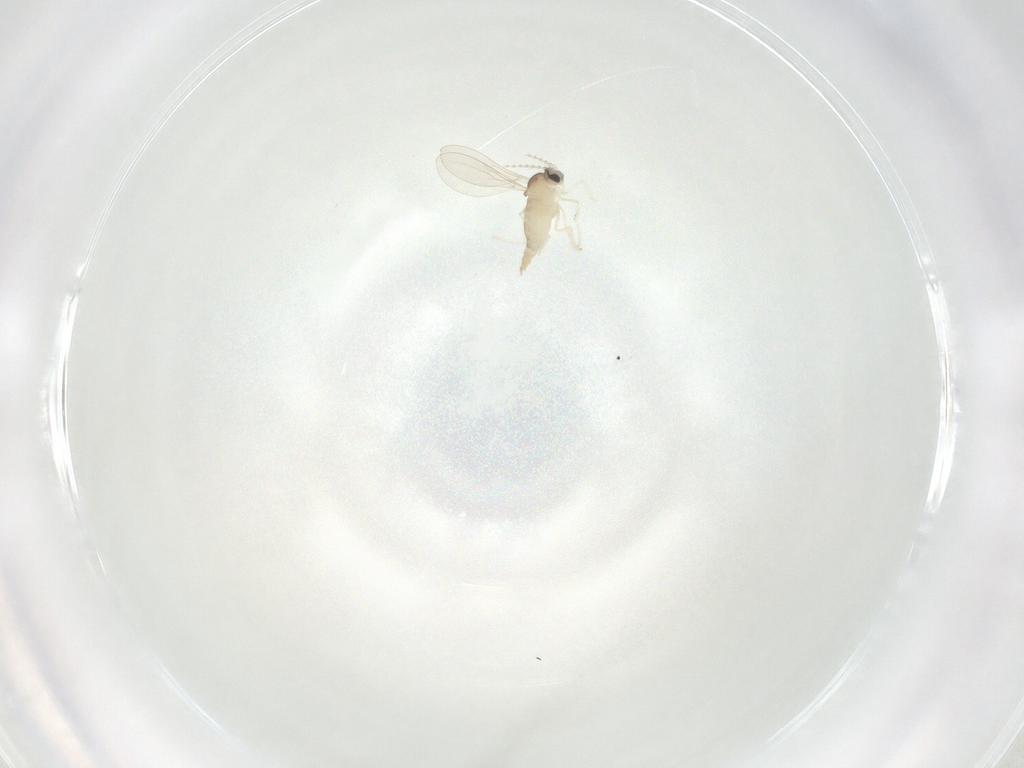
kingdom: Animalia
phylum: Arthropoda
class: Insecta
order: Diptera
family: Cecidomyiidae
